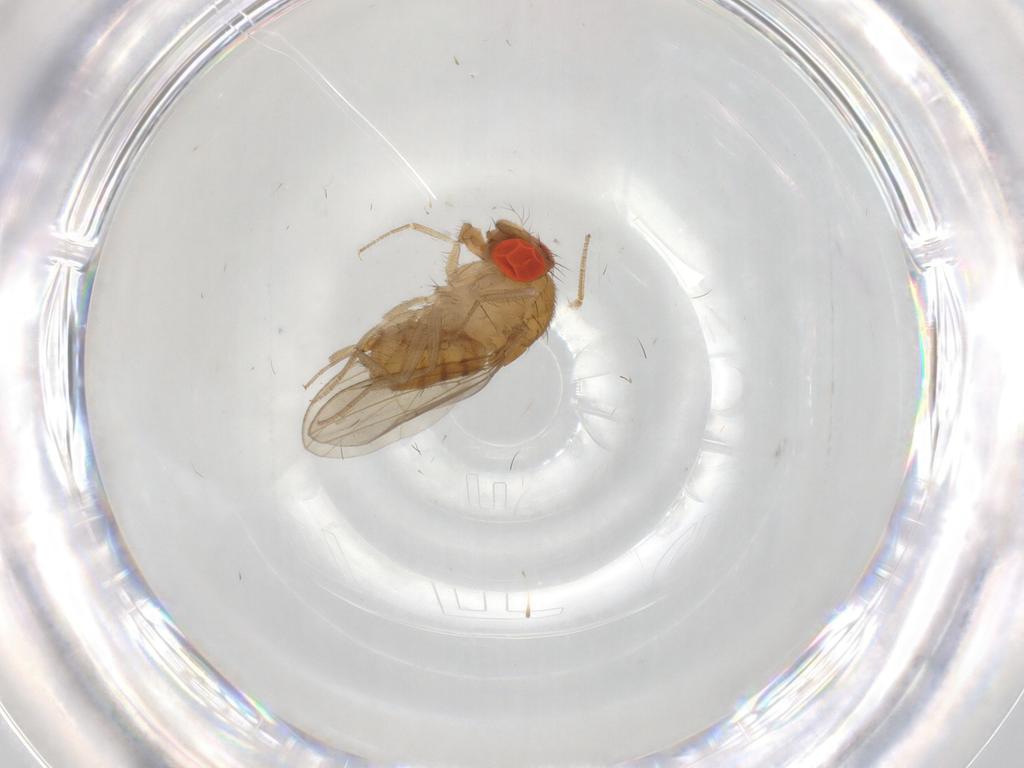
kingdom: Animalia
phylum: Arthropoda
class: Insecta
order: Diptera
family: Drosophilidae
